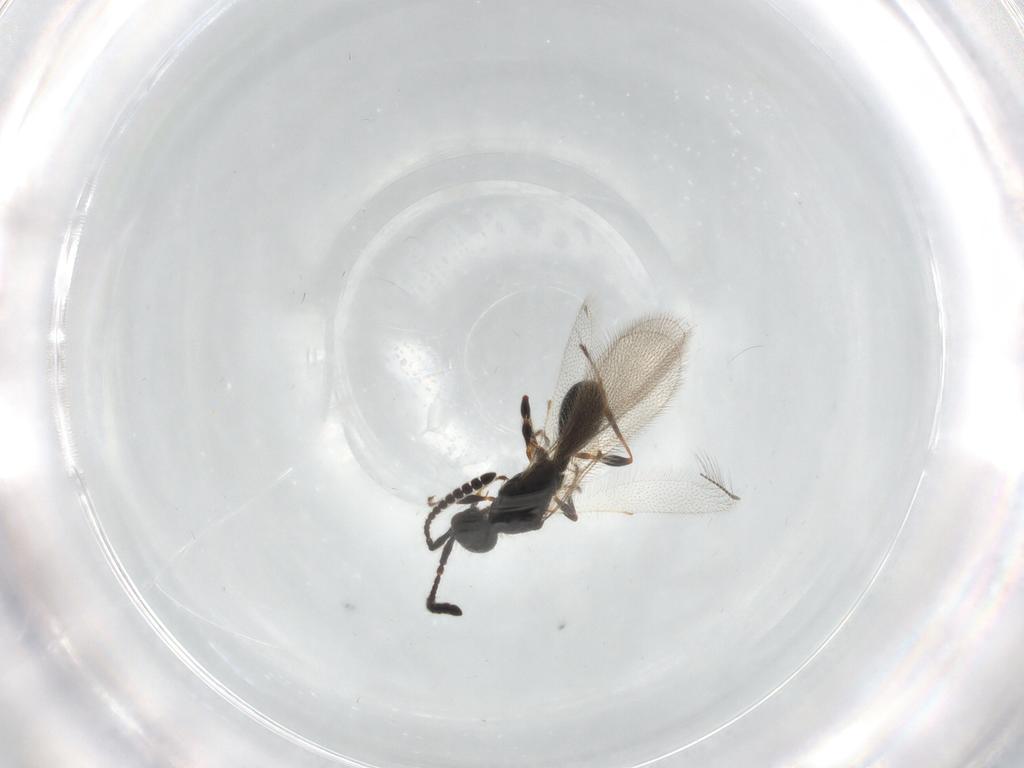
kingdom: Animalia
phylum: Arthropoda
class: Insecta
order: Hymenoptera
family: Diapriidae
